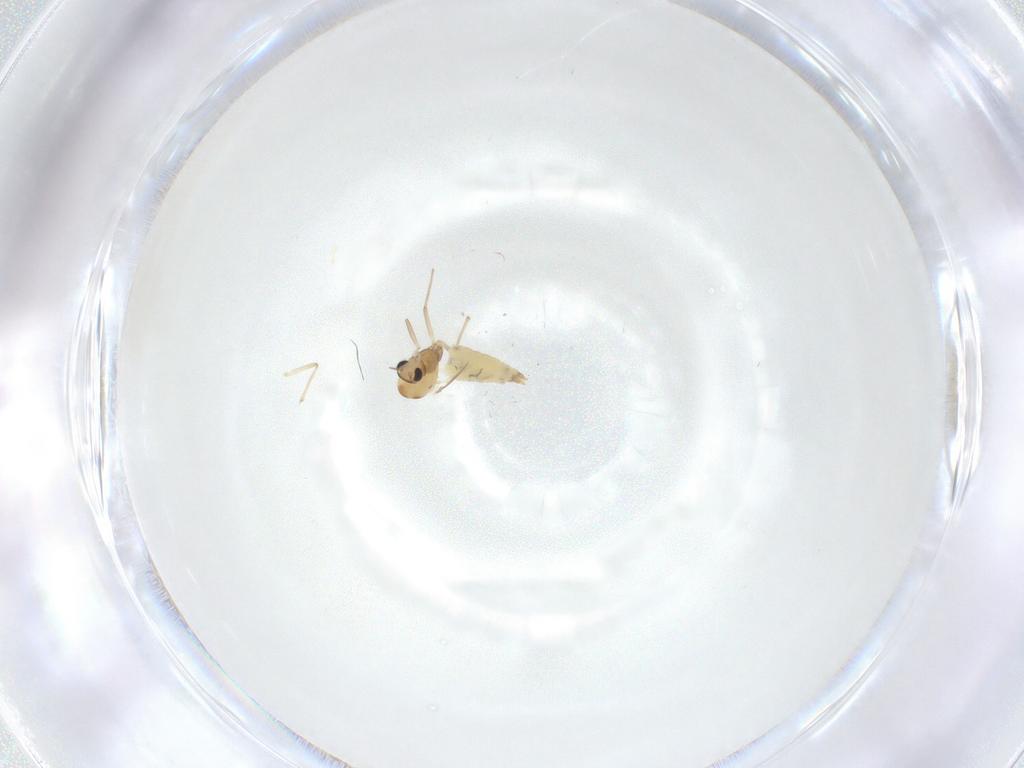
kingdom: Animalia
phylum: Arthropoda
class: Insecta
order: Diptera
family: Chironomidae
